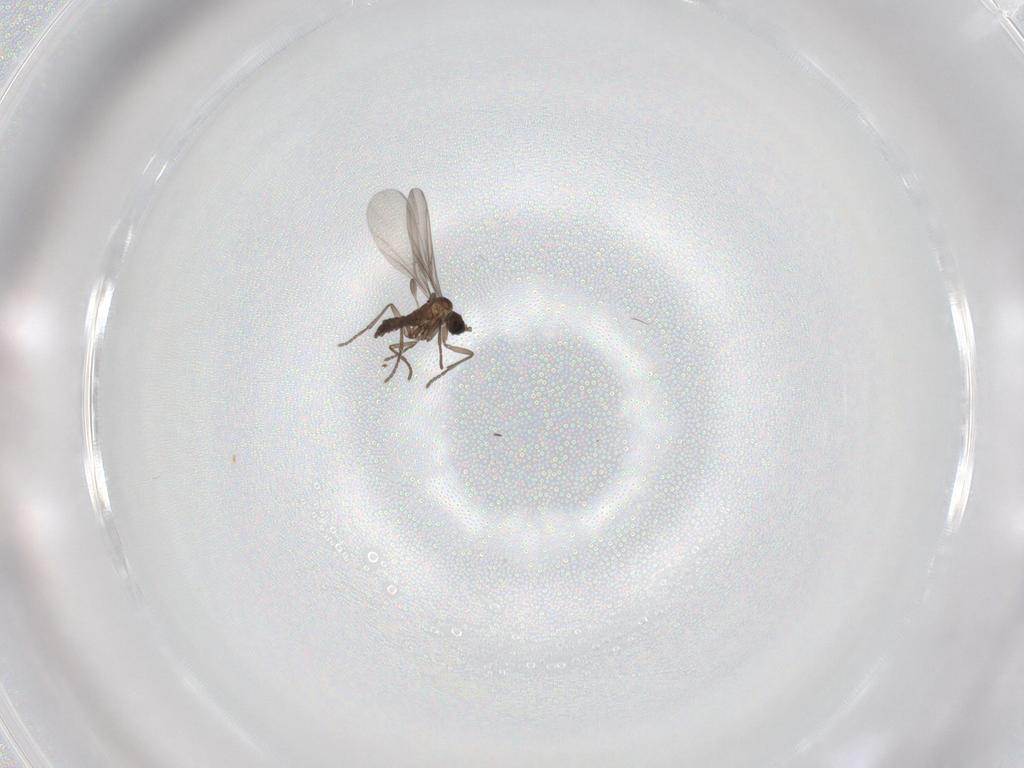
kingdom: Animalia
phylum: Arthropoda
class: Insecta
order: Diptera
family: Sciaridae
